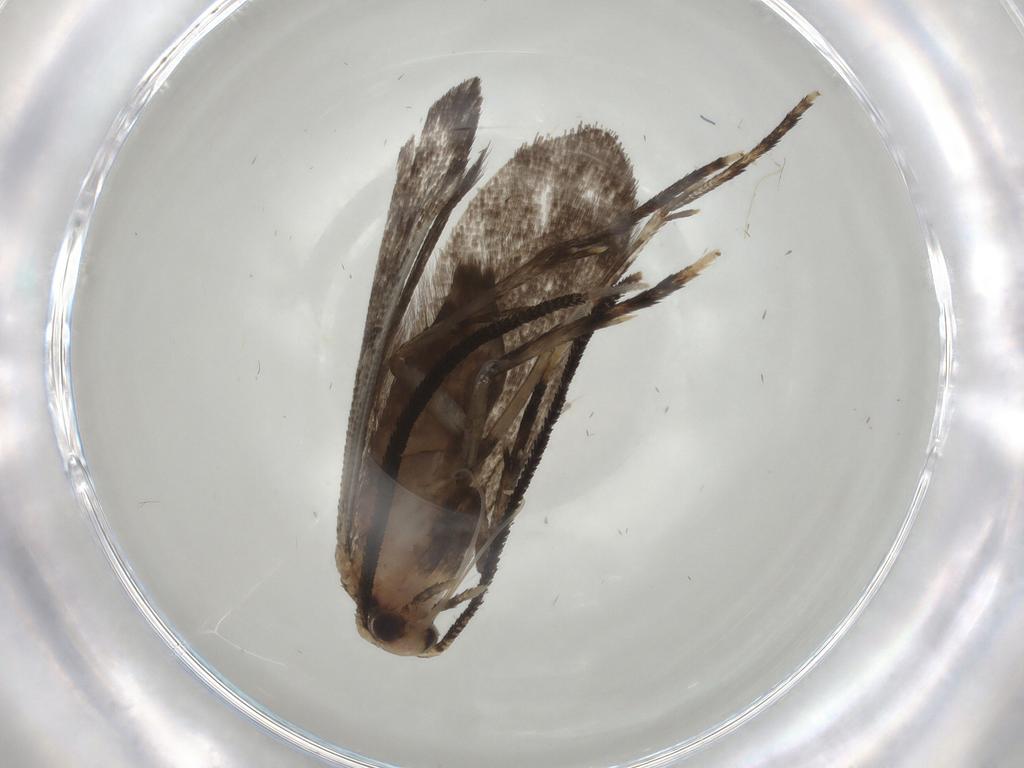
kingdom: Animalia
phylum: Arthropoda
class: Insecta
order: Lepidoptera
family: Choreutidae
